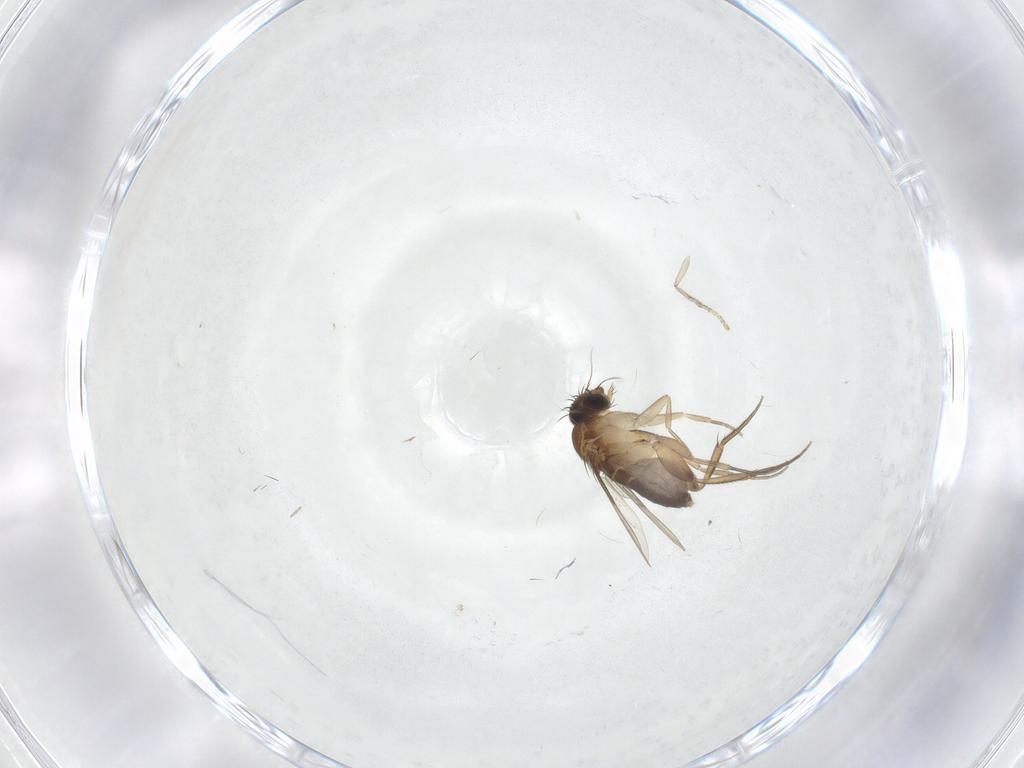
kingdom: Animalia
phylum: Arthropoda
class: Insecta
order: Diptera
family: Phoridae
